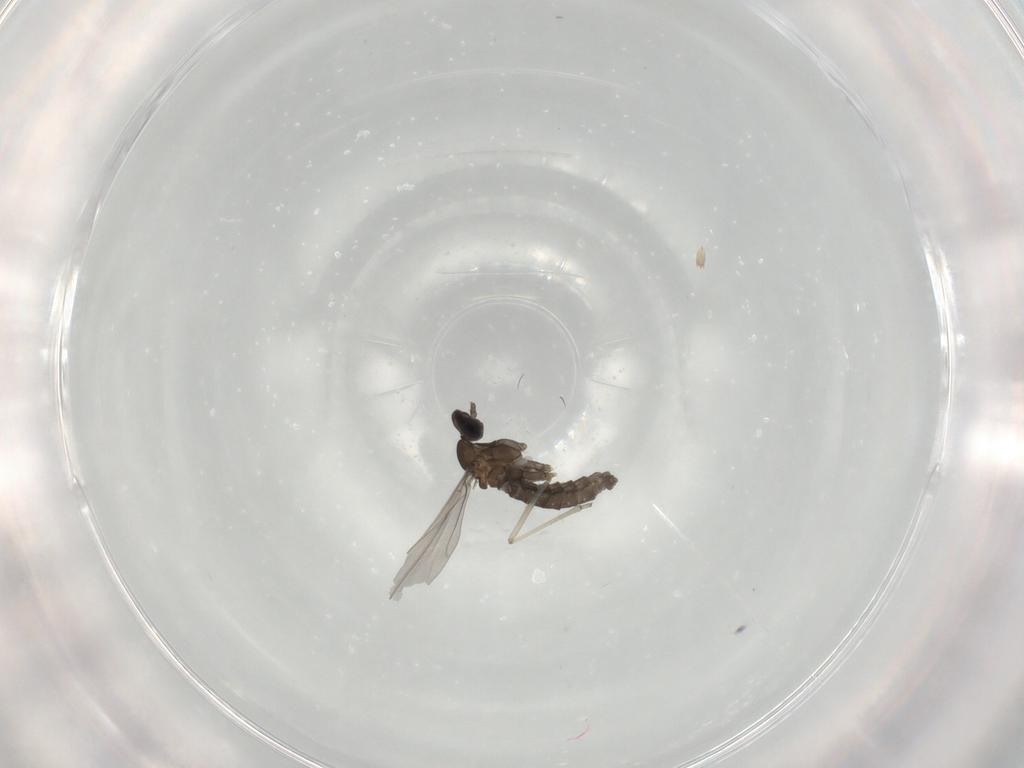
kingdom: Animalia
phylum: Arthropoda
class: Insecta
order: Diptera
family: Cecidomyiidae
